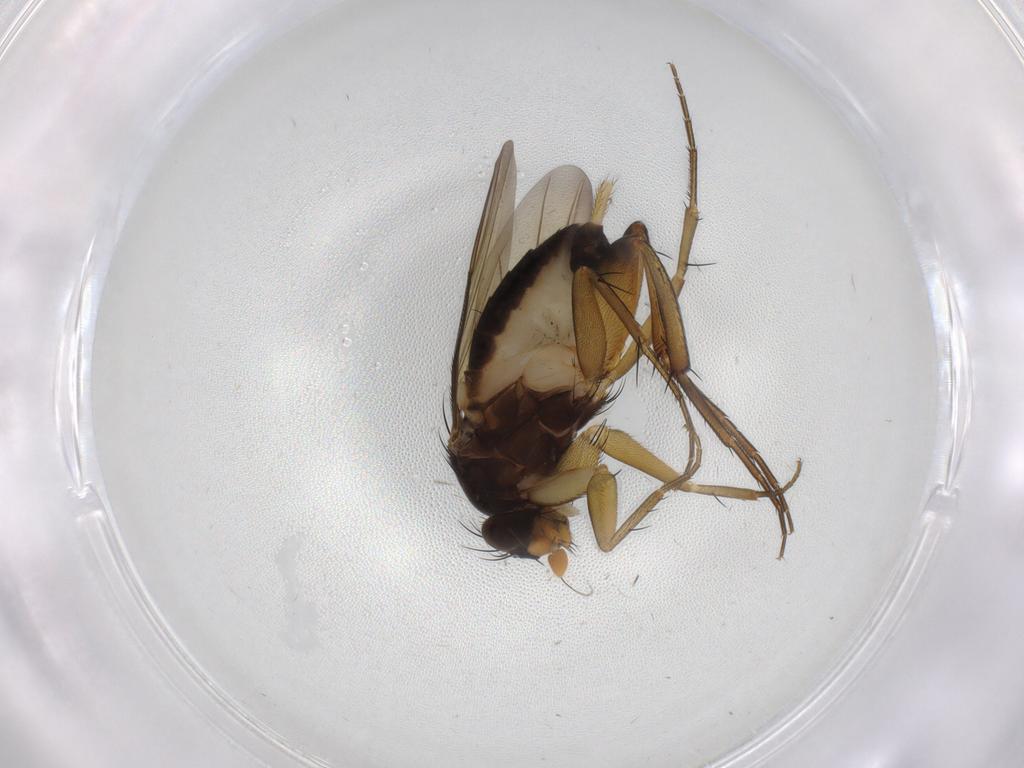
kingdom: Animalia
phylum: Arthropoda
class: Insecta
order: Diptera
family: Phoridae
